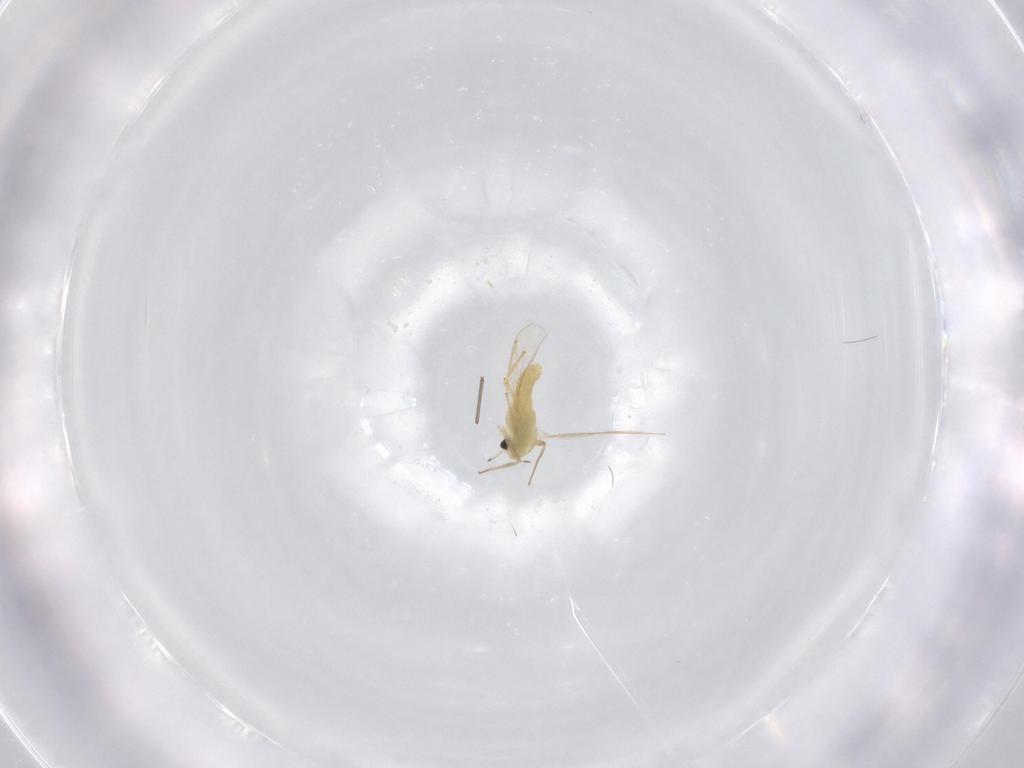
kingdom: Animalia
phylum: Arthropoda
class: Insecta
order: Diptera
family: Chironomidae
